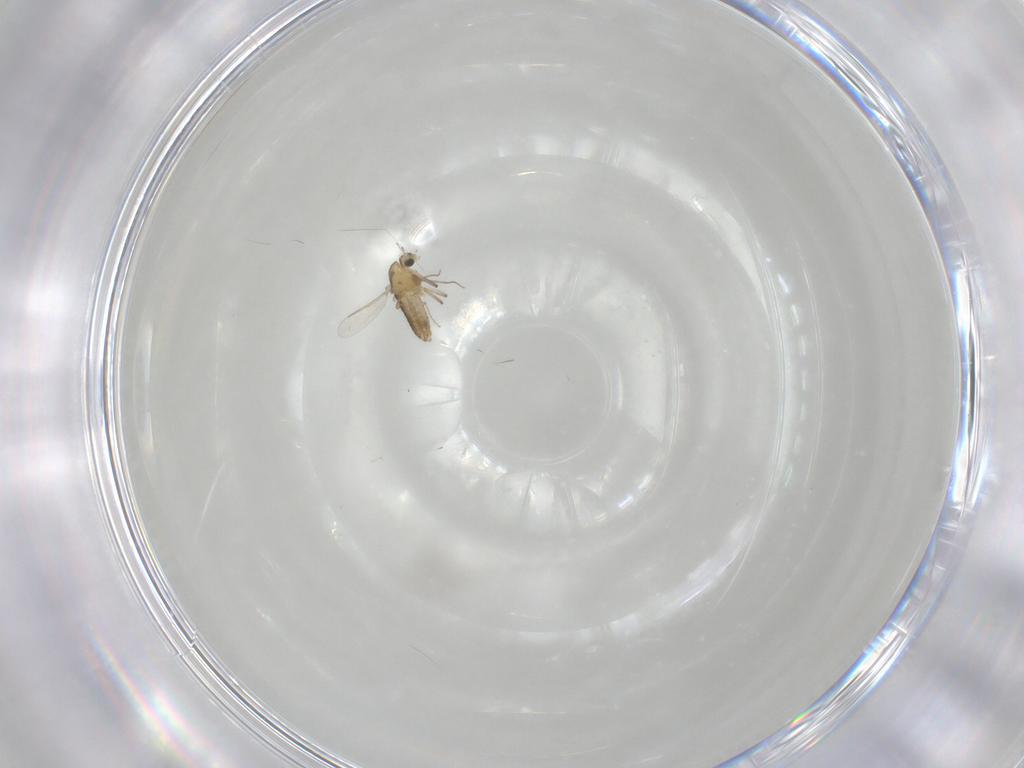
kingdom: Animalia
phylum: Arthropoda
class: Insecta
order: Diptera
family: Chironomidae
